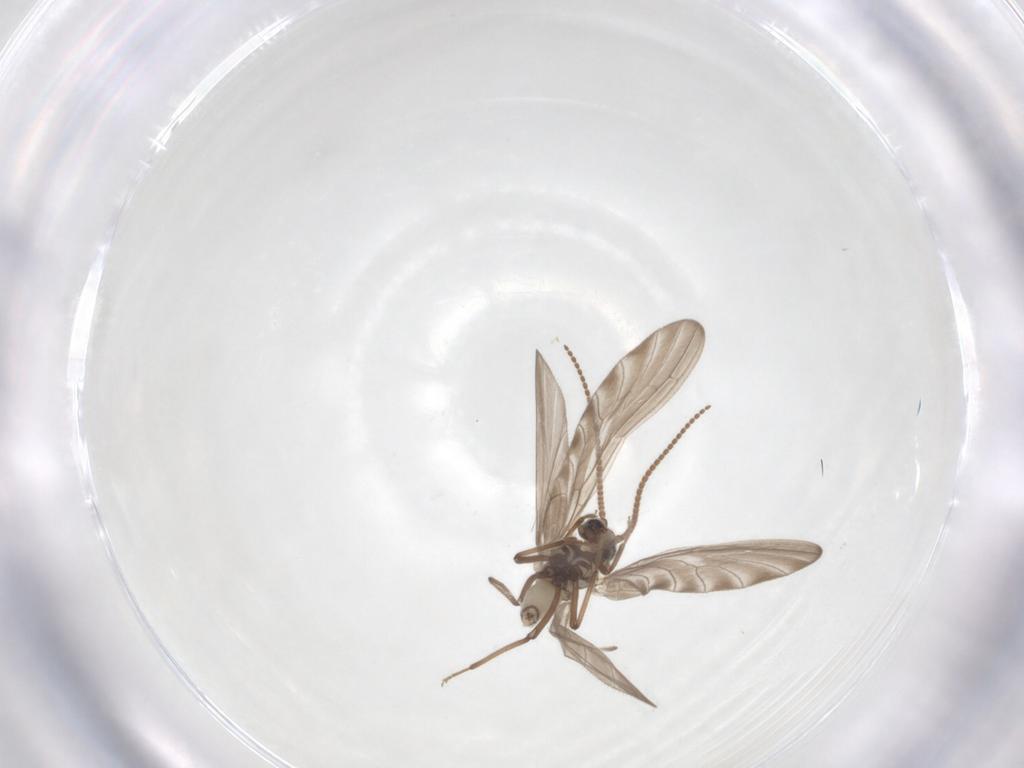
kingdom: Animalia
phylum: Arthropoda
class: Insecta
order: Neuroptera
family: Coniopterygidae
